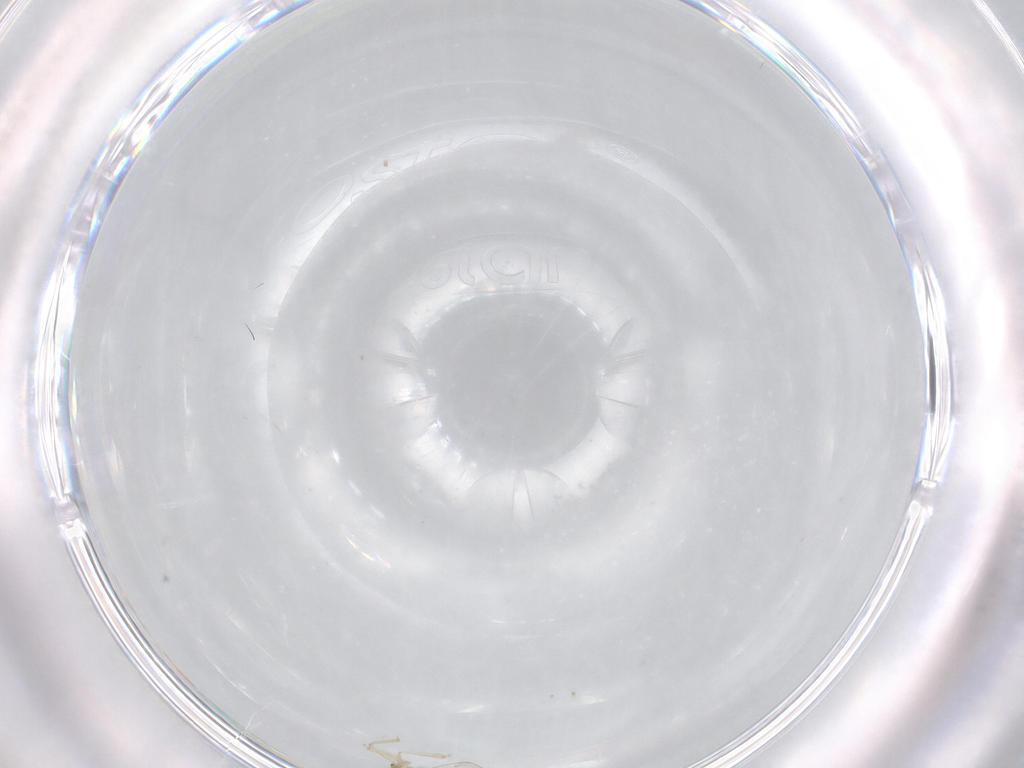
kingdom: Animalia
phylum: Arthropoda
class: Insecta
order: Diptera
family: Cecidomyiidae
